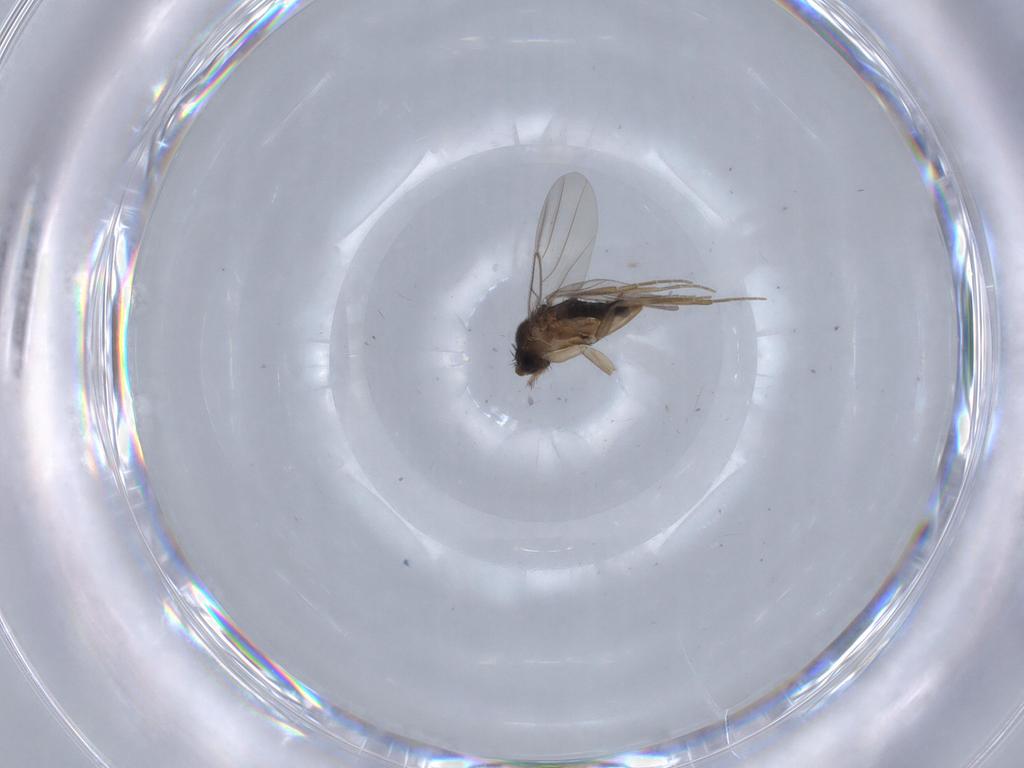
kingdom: Animalia
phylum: Arthropoda
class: Insecta
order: Diptera
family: Phoridae
